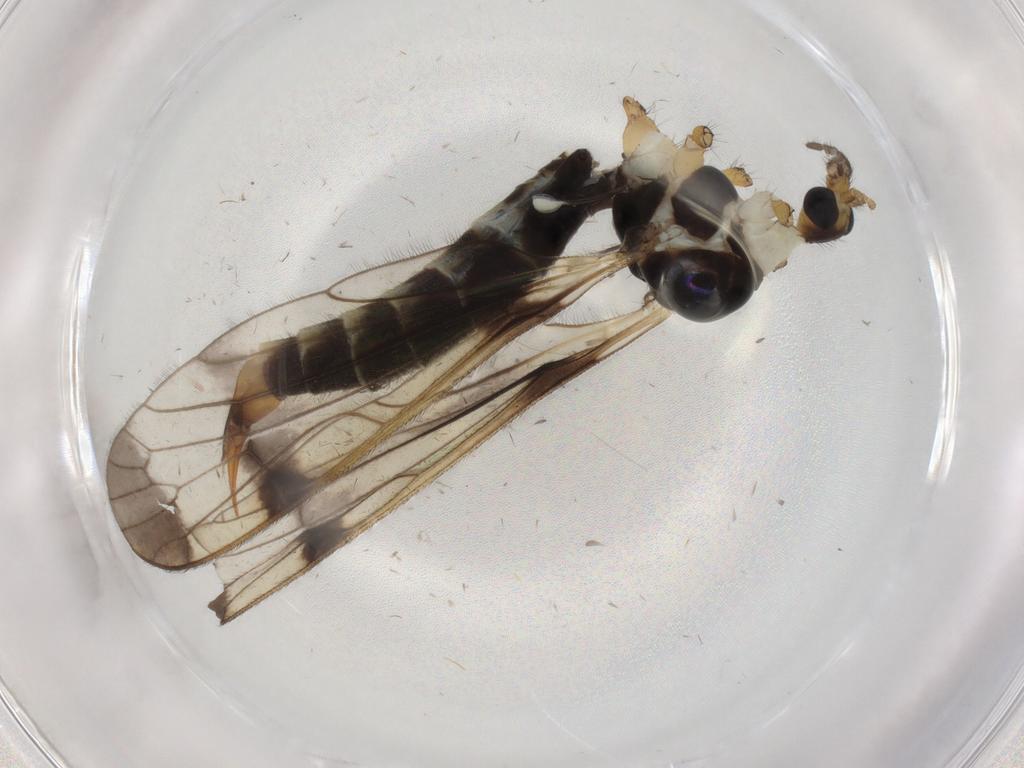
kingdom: Animalia
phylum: Arthropoda
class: Insecta
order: Diptera
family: Limoniidae
